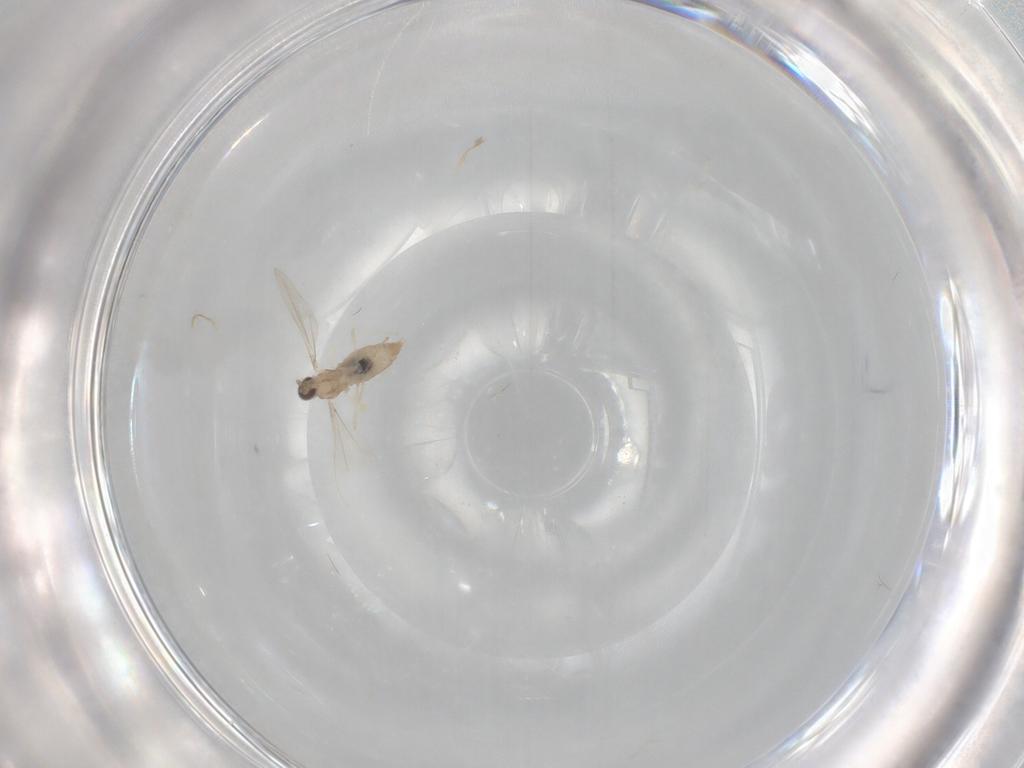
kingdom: Animalia
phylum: Arthropoda
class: Insecta
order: Diptera
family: Cecidomyiidae
